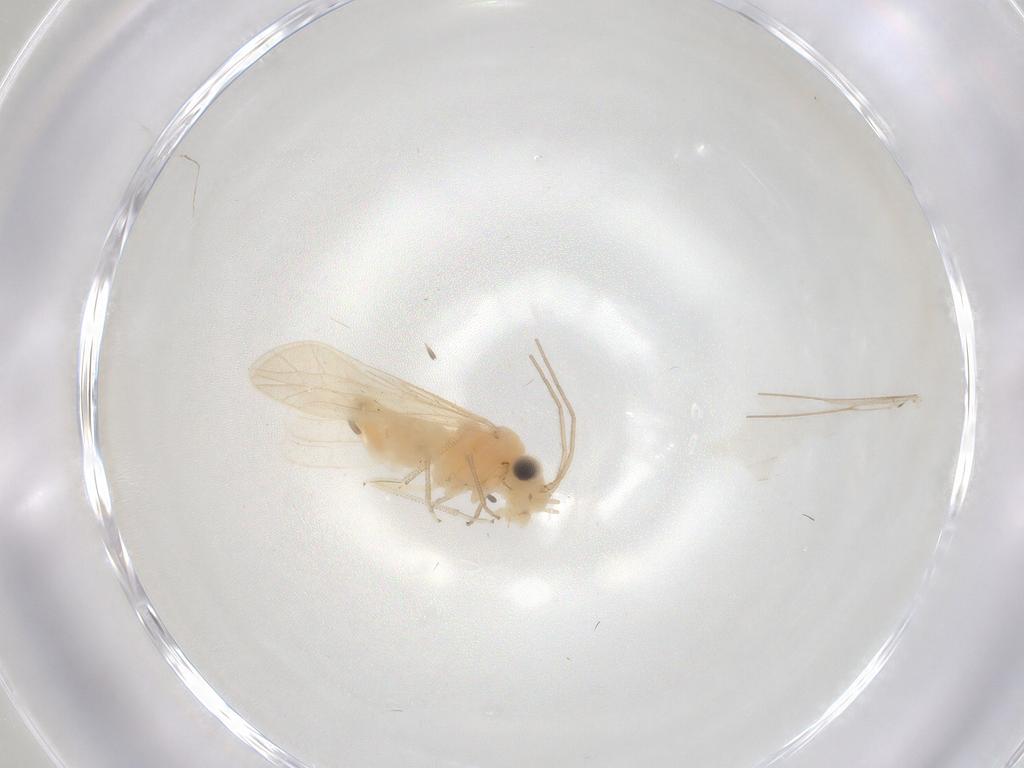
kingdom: Animalia
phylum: Arthropoda
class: Insecta
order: Psocodea
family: Caeciliusidae
